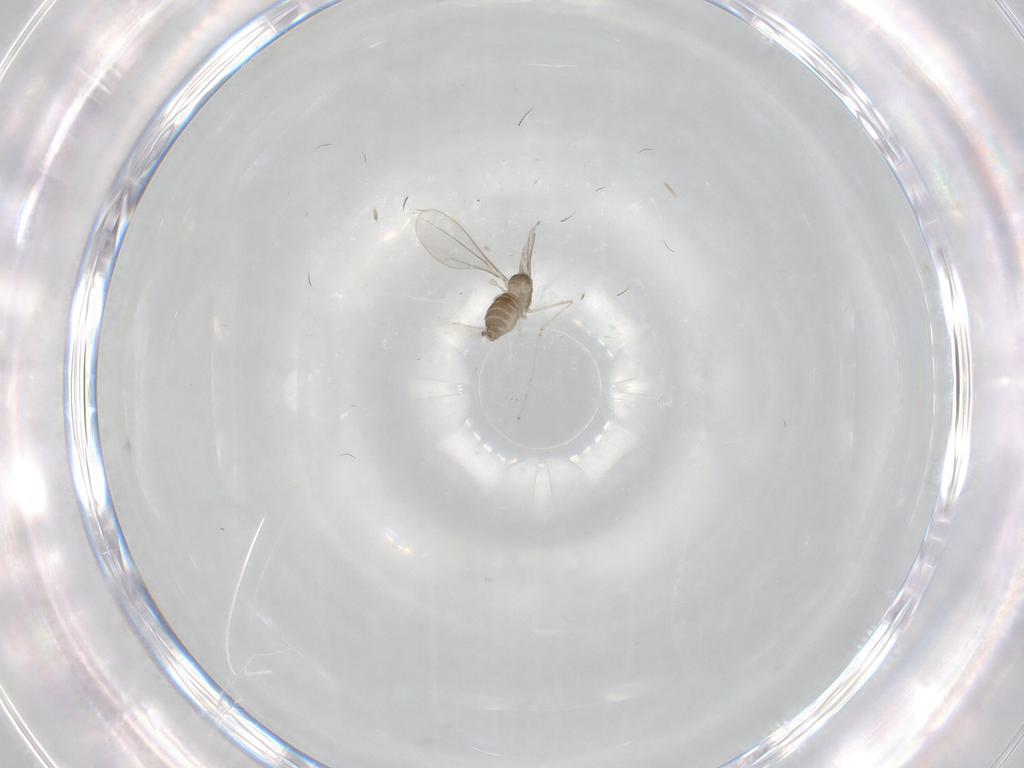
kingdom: Animalia
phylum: Arthropoda
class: Insecta
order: Diptera
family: Cecidomyiidae
